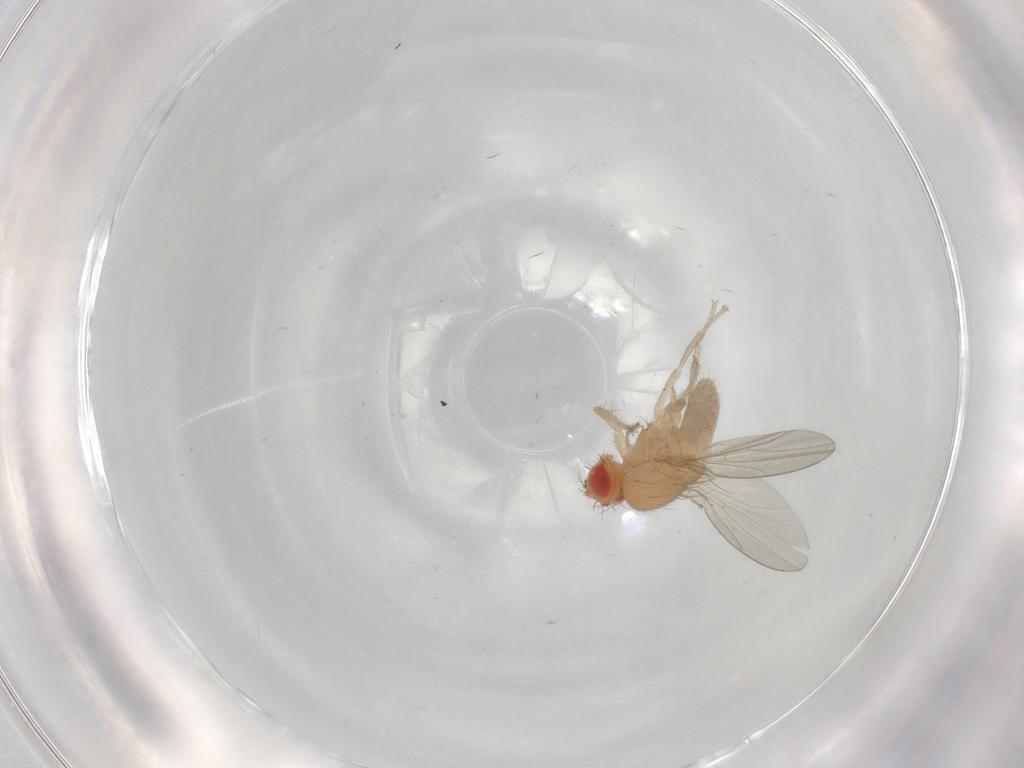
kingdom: Animalia
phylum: Arthropoda
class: Insecta
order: Diptera
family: Cecidomyiidae
